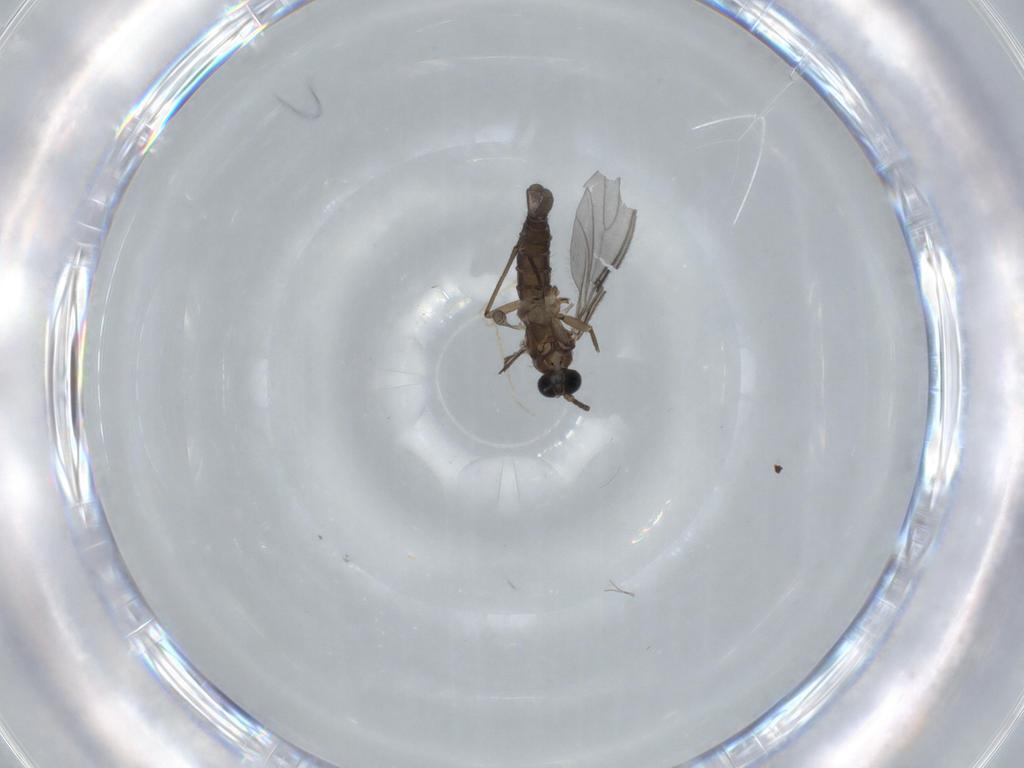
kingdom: Animalia
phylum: Arthropoda
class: Insecta
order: Diptera
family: Sciaridae
